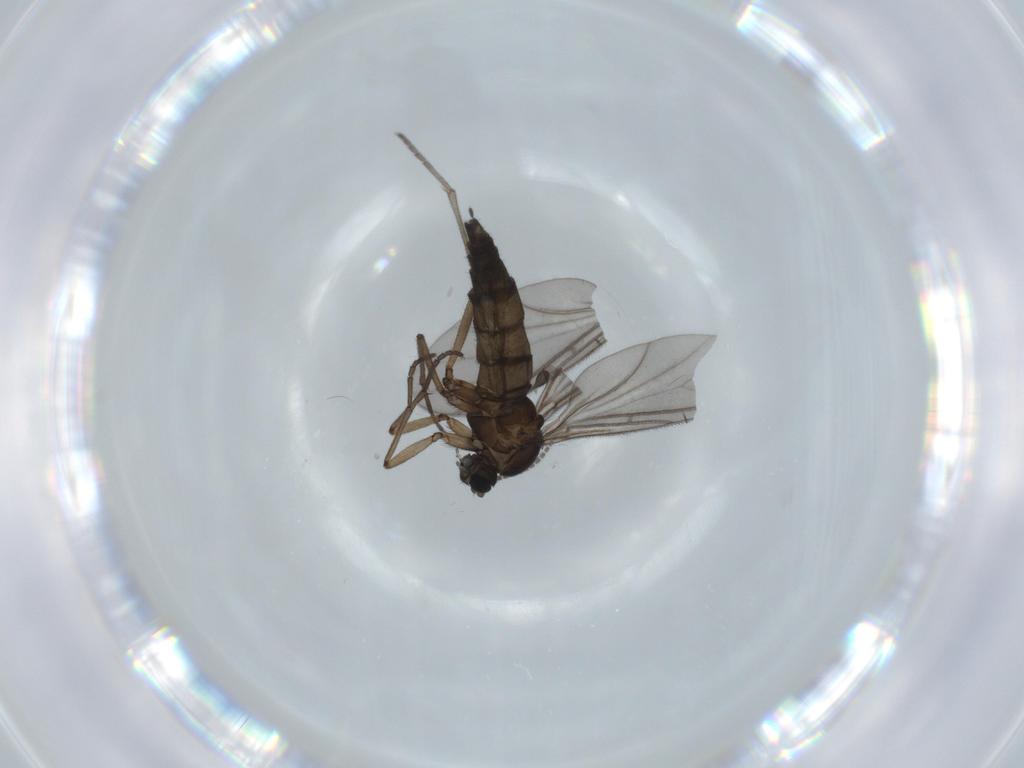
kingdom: Animalia
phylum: Arthropoda
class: Insecta
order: Diptera
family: Sciaridae
